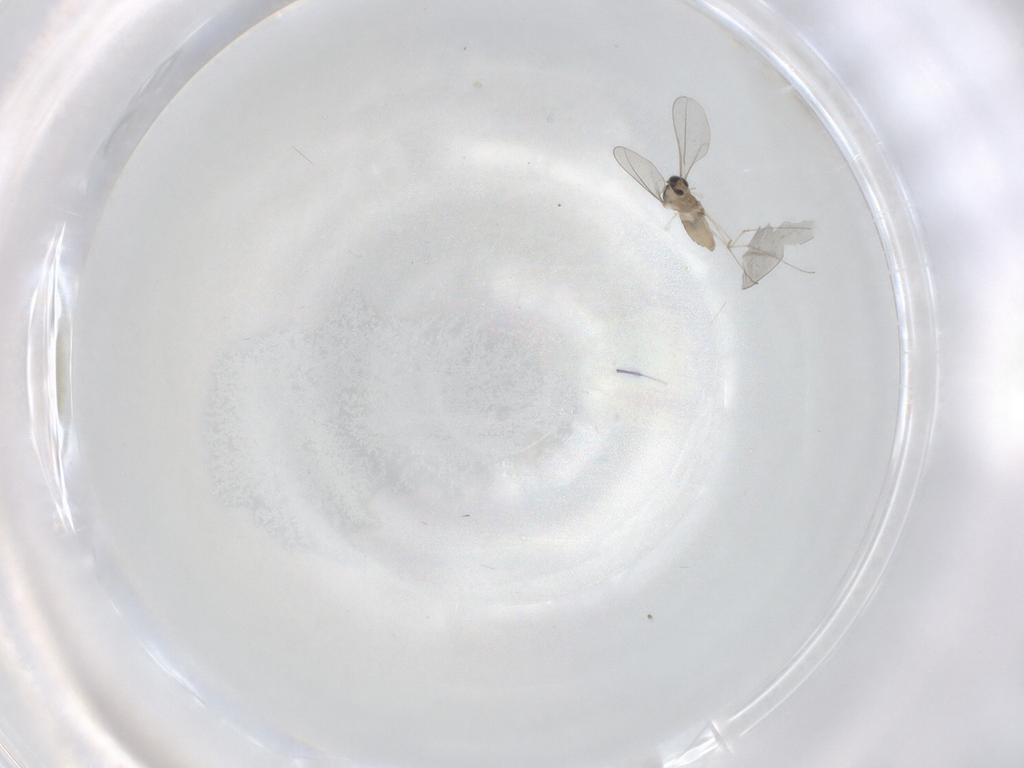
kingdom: Animalia
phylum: Arthropoda
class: Insecta
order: Diptera
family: Cecidomyiidae
